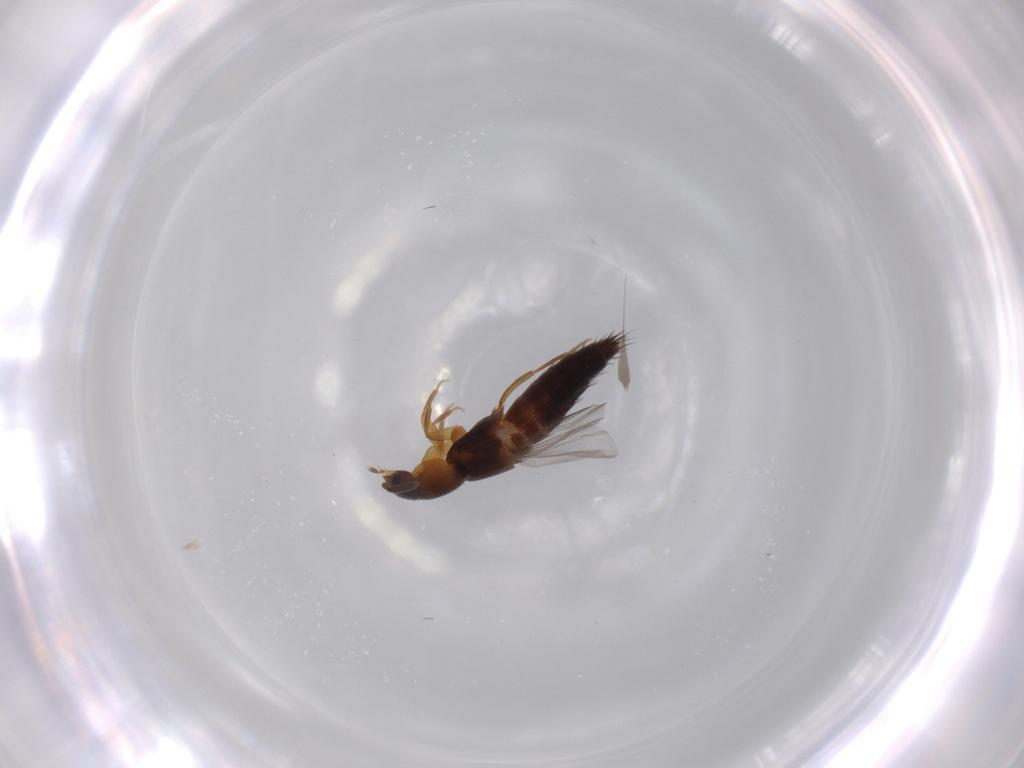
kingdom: Animalia
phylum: Arthropoda
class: Insecta
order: Coleoptera
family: Staphylinidae
